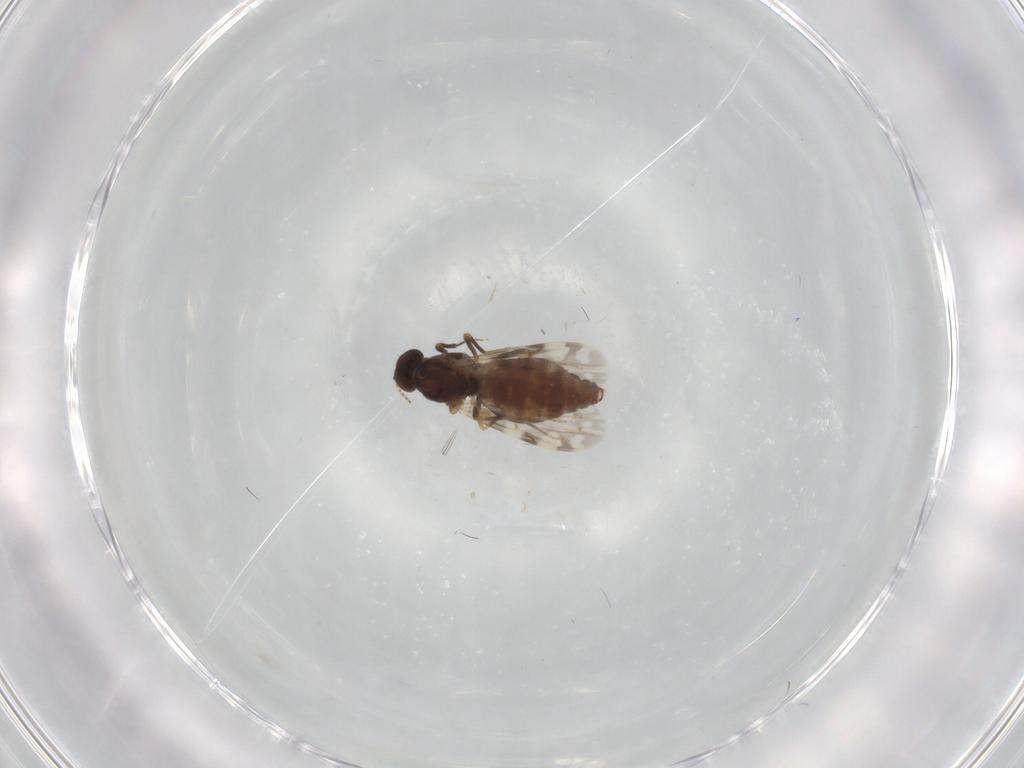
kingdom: Animalia
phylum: Arthropoda
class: Insecta
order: Diptera
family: Ceratopogonidae
